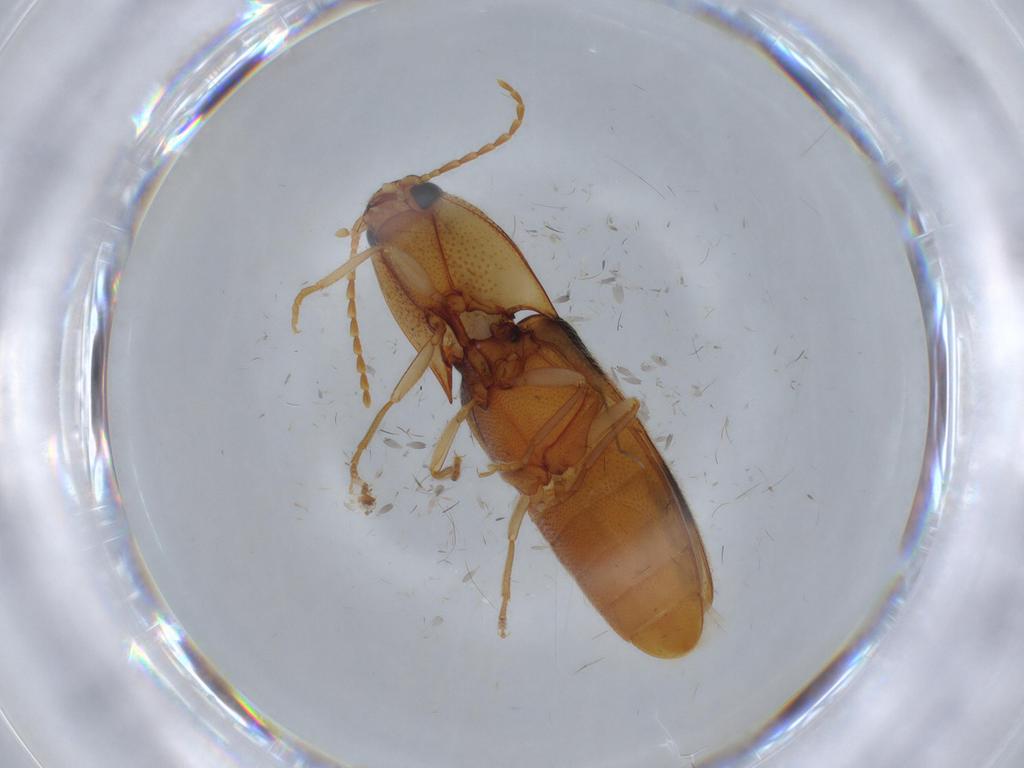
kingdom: Animalia
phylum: Arthropoda
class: Insecta
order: Coleoptera
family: Elateridae
